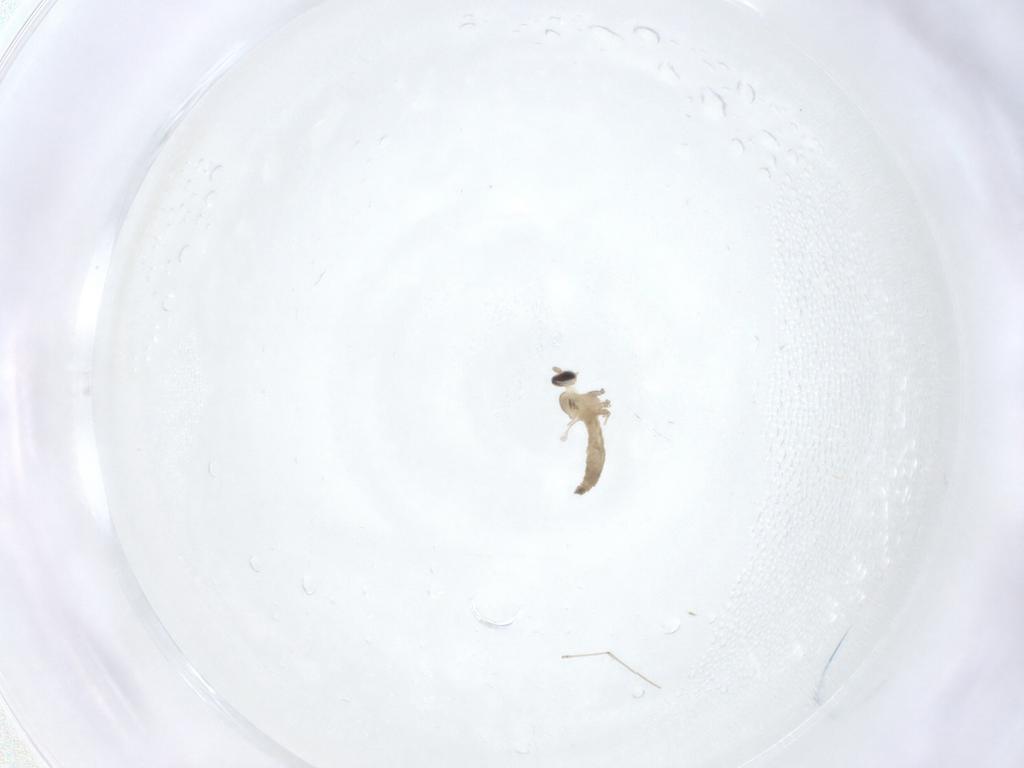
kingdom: Animalia
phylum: Arthropoda
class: Insecta
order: Diptera
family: Cecidomyiidae
